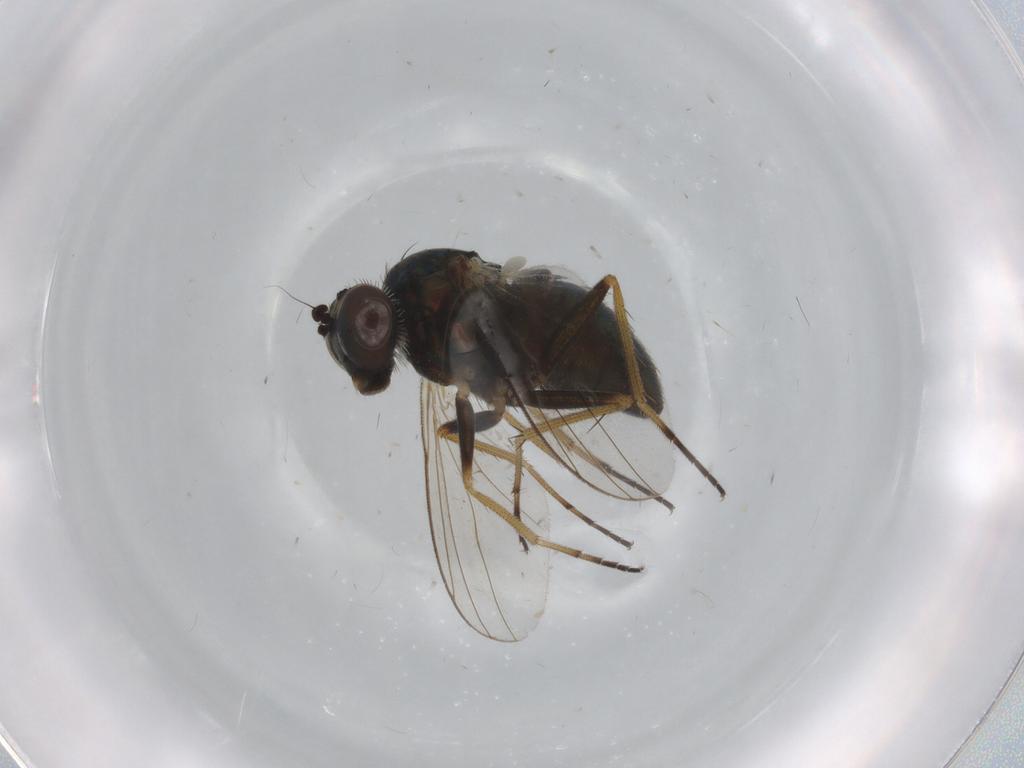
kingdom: Animalia
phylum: Arthropoda
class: Insecta
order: Diptera
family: Dolichopodidae
